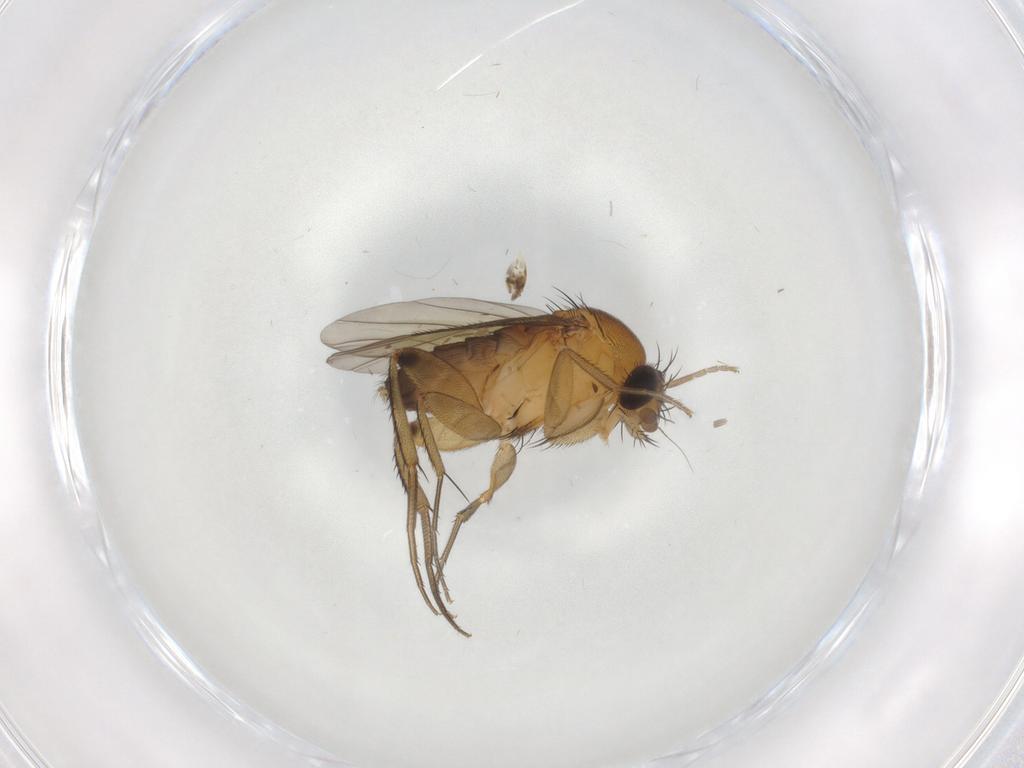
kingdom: Animalia
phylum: Arthropoda
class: Insecta
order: Diptera
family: Phoridae
